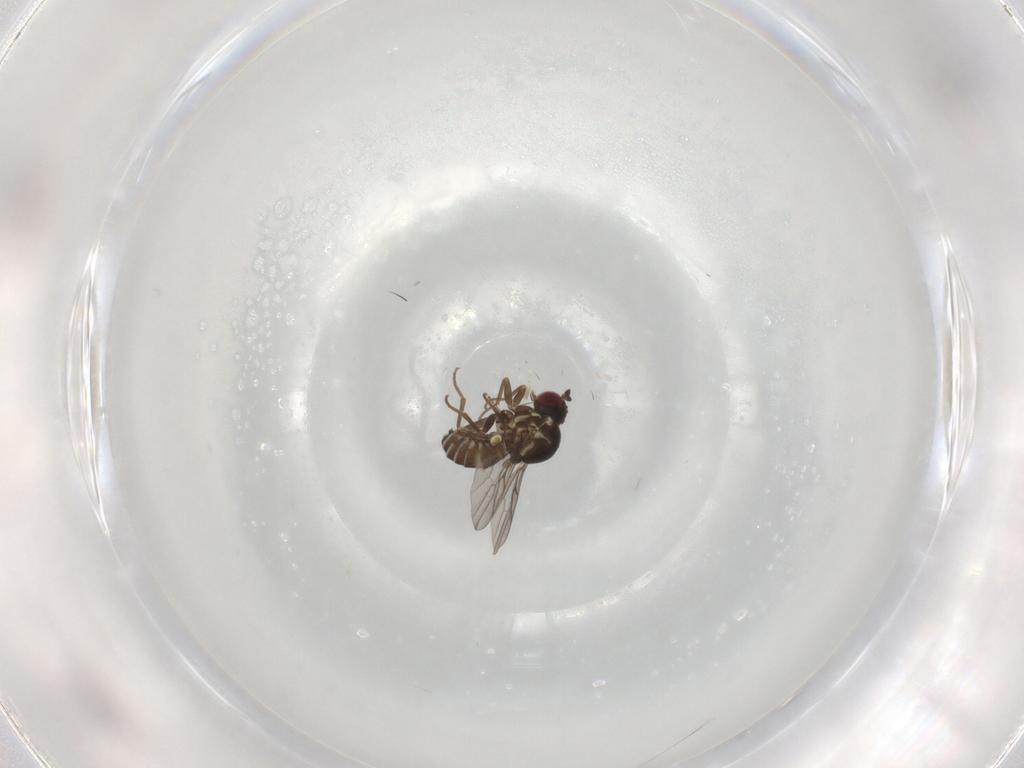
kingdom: Animalia
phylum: Arthropoda
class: Insecta
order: Diptera
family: Mythicomyiidae
